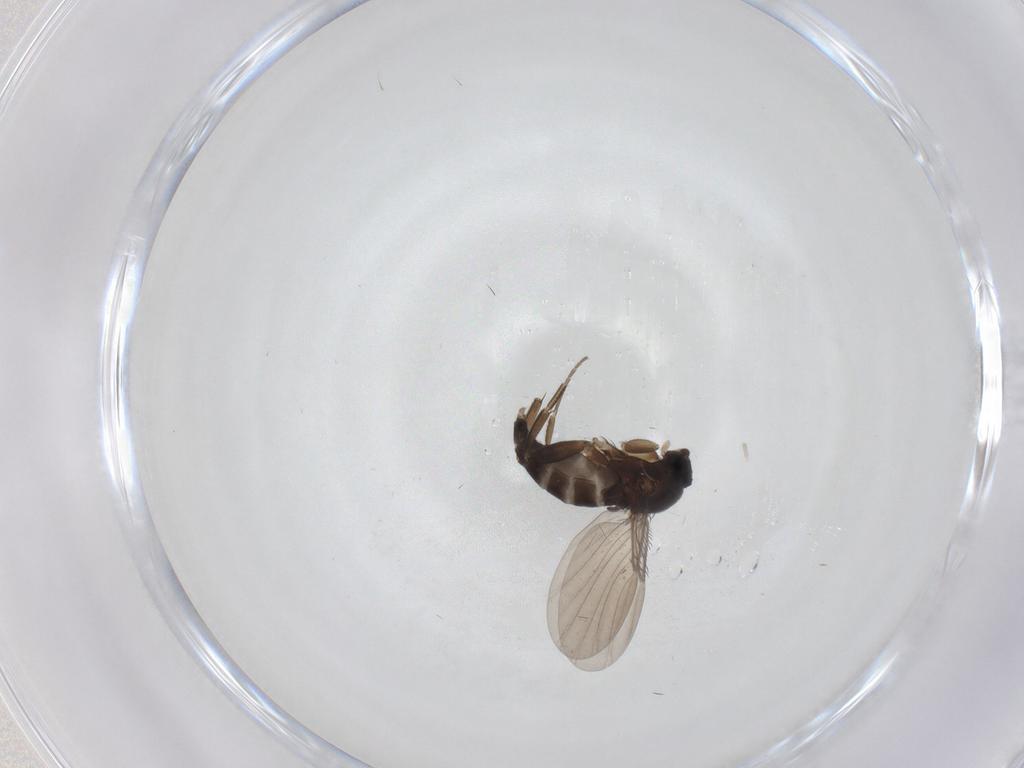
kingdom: Animalia
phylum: Arthropoda
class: Insecta
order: Diptera
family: Phoridae
